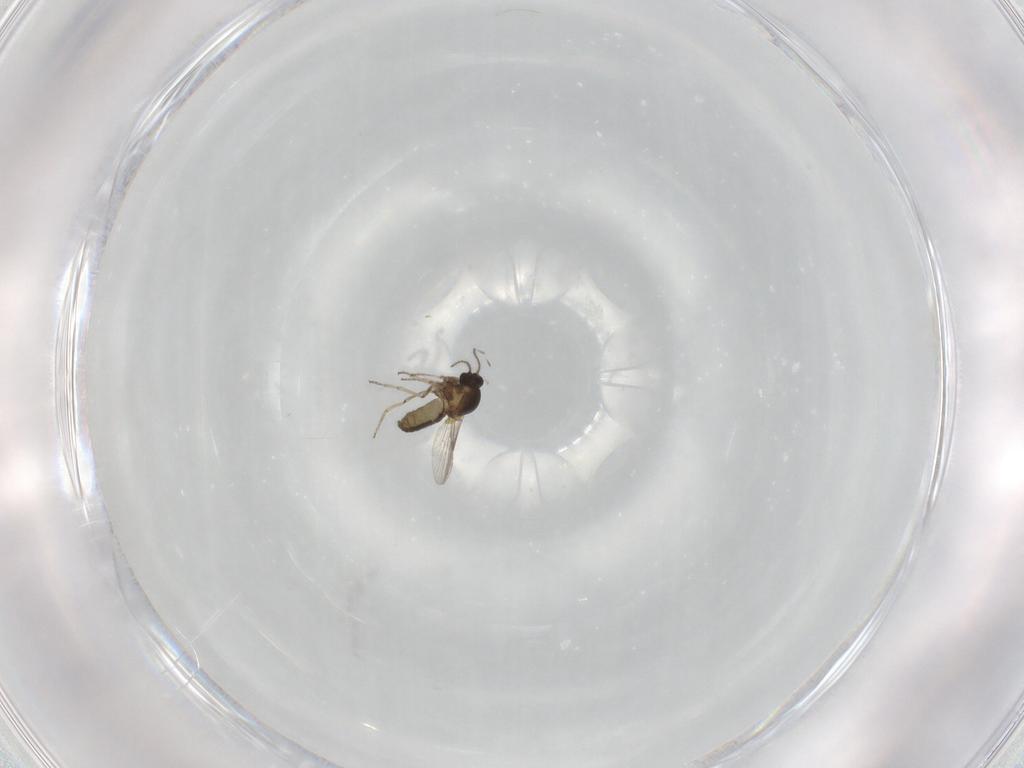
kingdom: Animalia
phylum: Arthropoda
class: Insecta
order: Diptera
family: Ceratopogonidae
